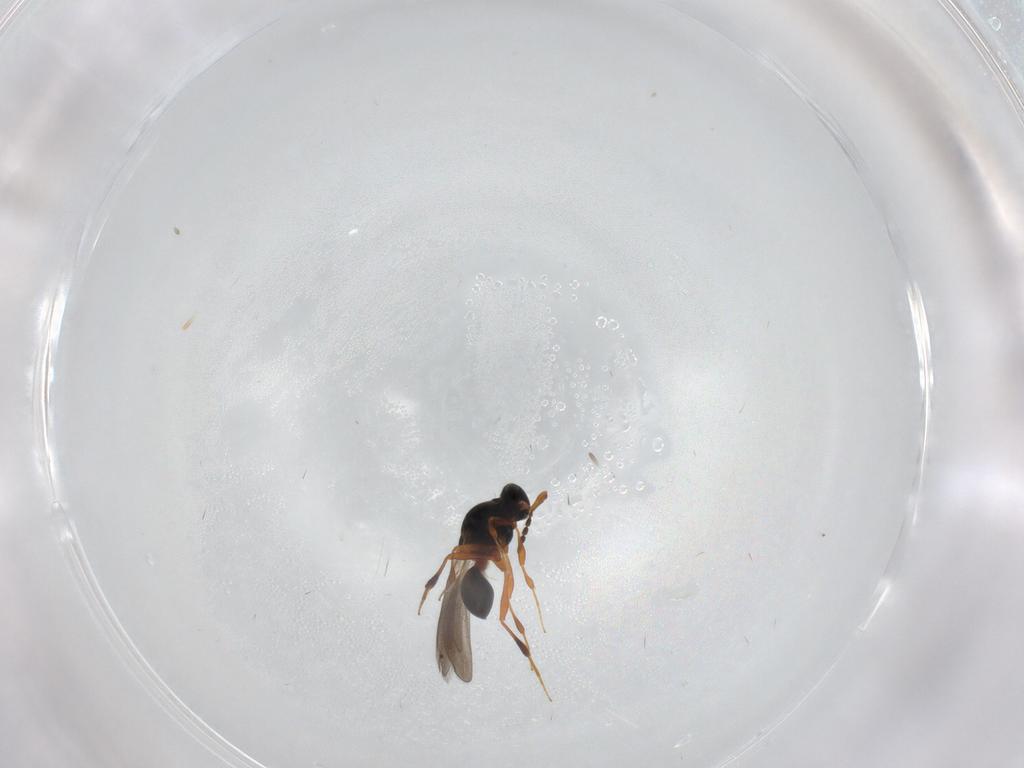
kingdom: Animalia
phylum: Arthropoda
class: Insecta
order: Hymenoptera
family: Platygastridae
